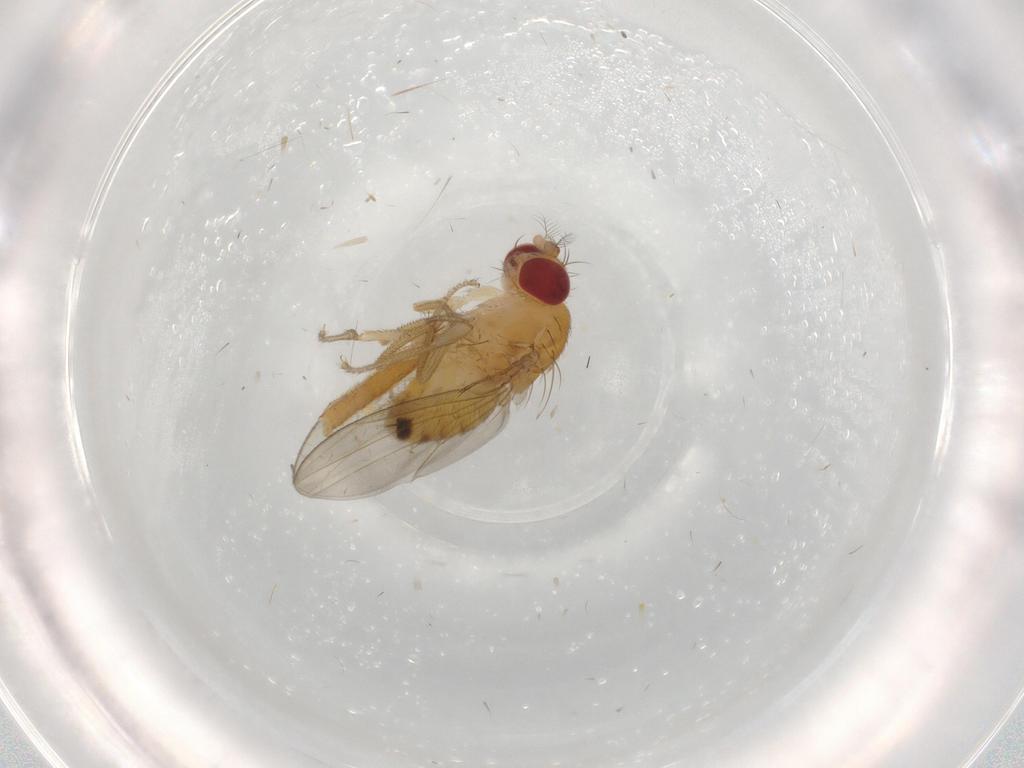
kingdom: Animalia
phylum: Arthropoda
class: Insecta
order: Diptera
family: Drosophilidae
